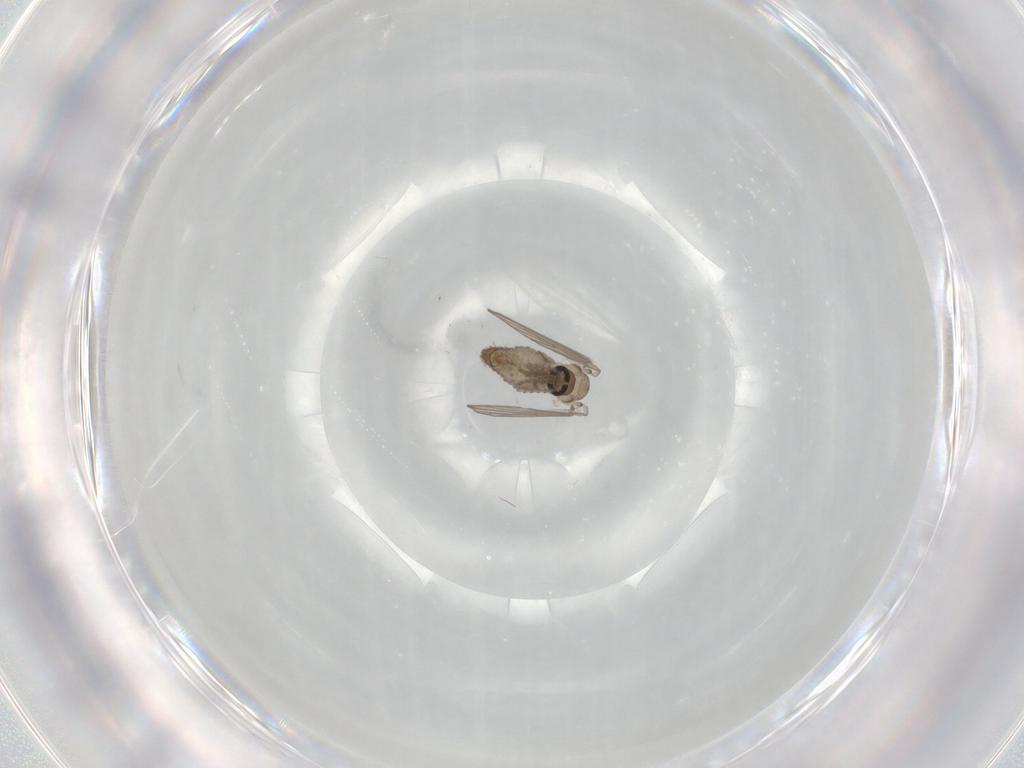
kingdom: Animalia
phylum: Arthropoda
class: Insecta
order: Diptera
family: Psychodidae
